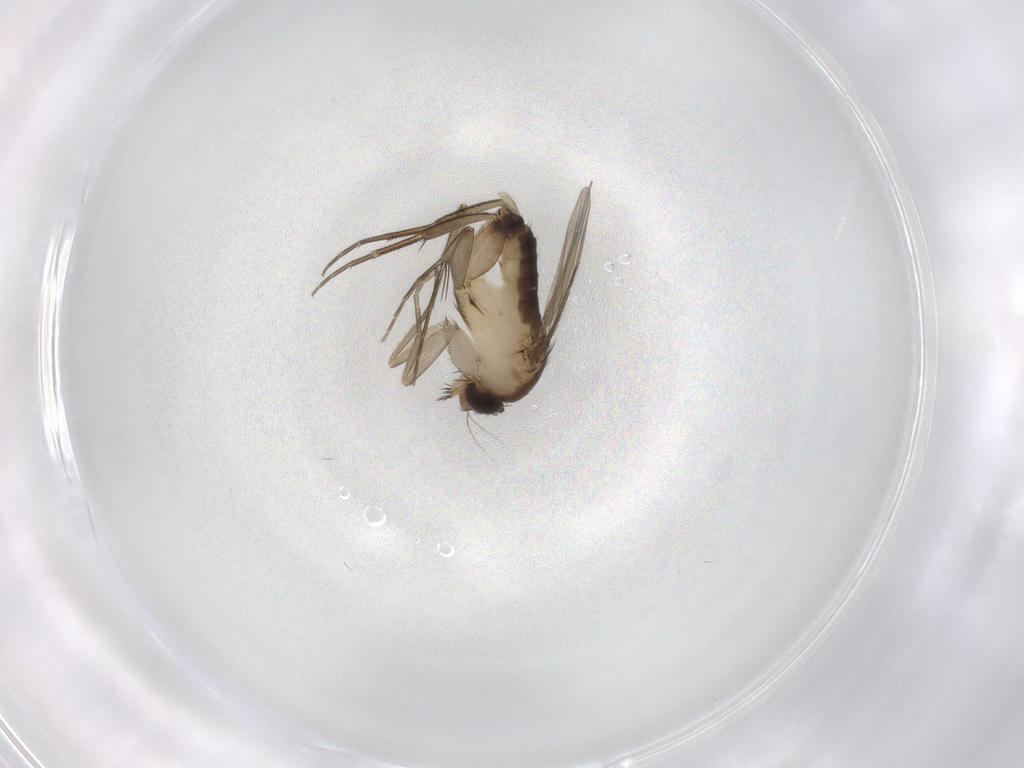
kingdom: Animalia
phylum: Arthropoda
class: Insecta
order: Diptera
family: Phoridae
